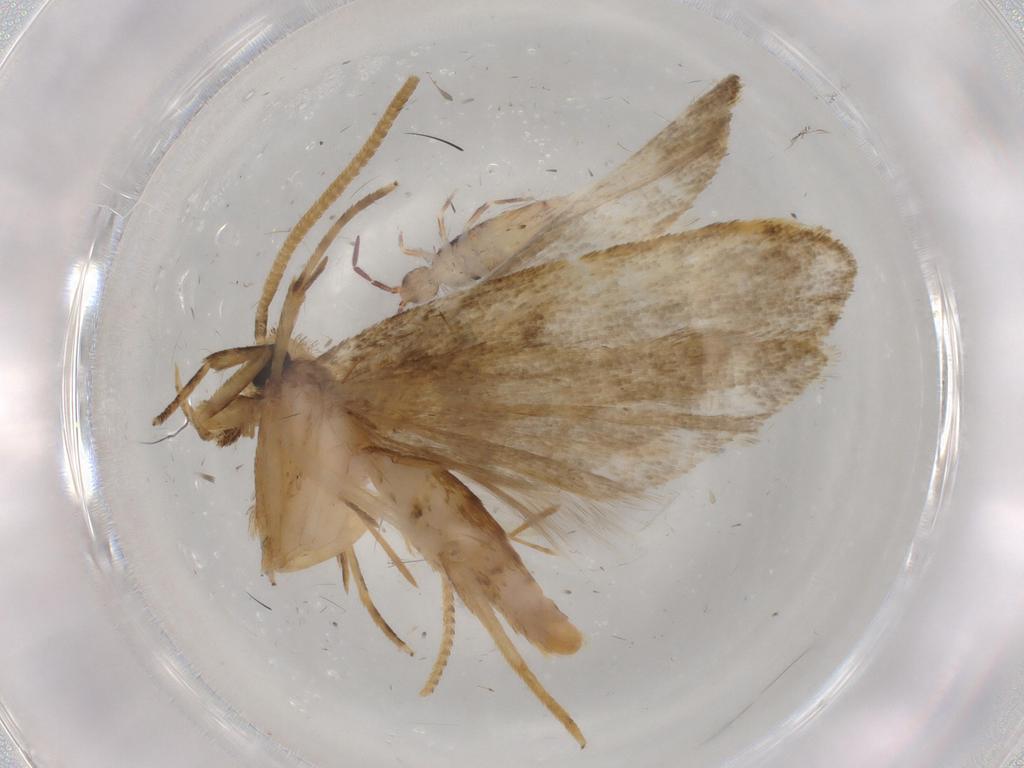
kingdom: Animalia
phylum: Arthropoda
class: Insecta
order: Lepidoptera
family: Autostichidae
